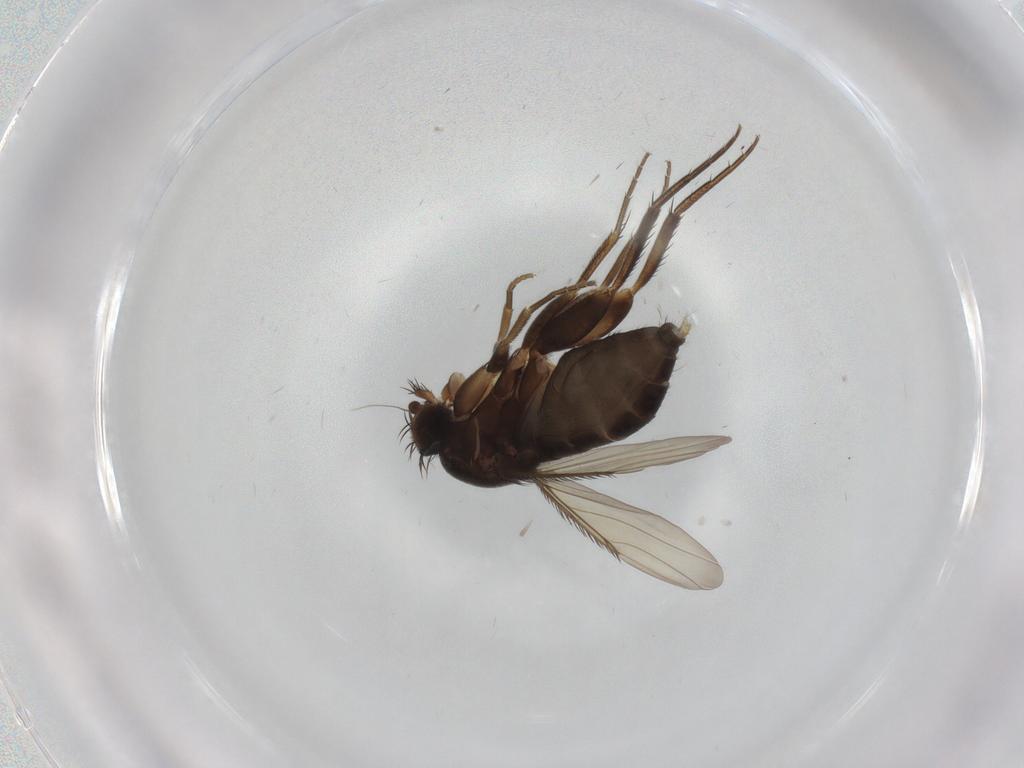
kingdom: Animalia
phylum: Arthropoda
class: Insecta
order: Diptera
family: Phoridae
